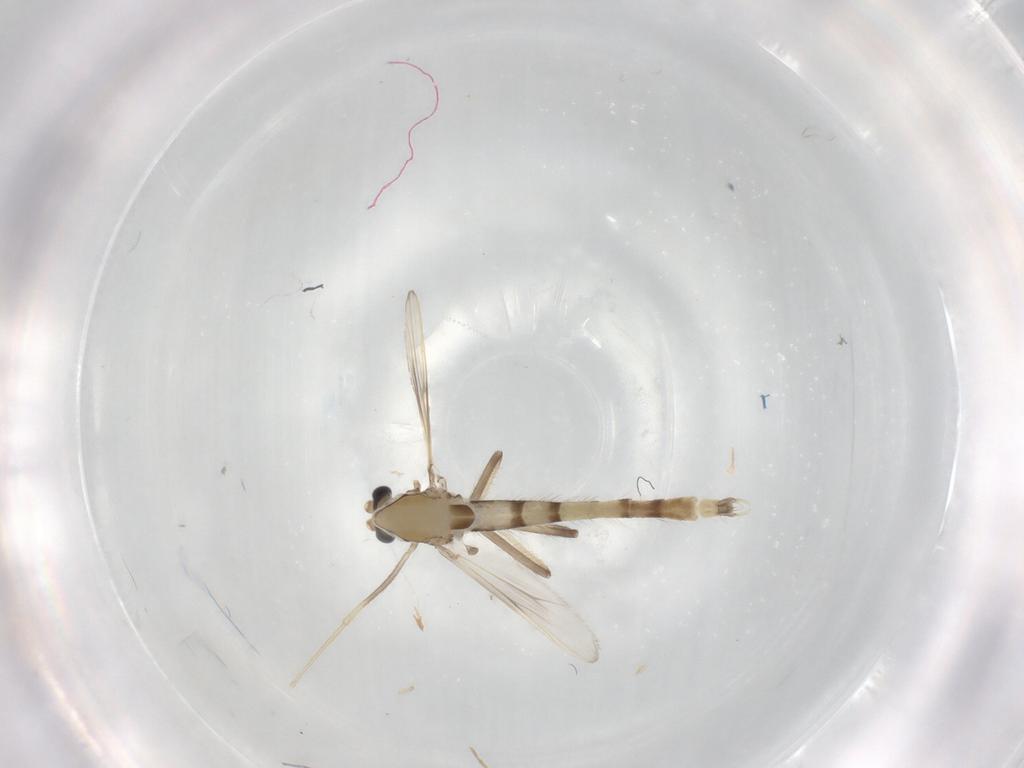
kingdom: Animalia
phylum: Arthropoda
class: Insecta
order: Diptera
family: Chironomidae
